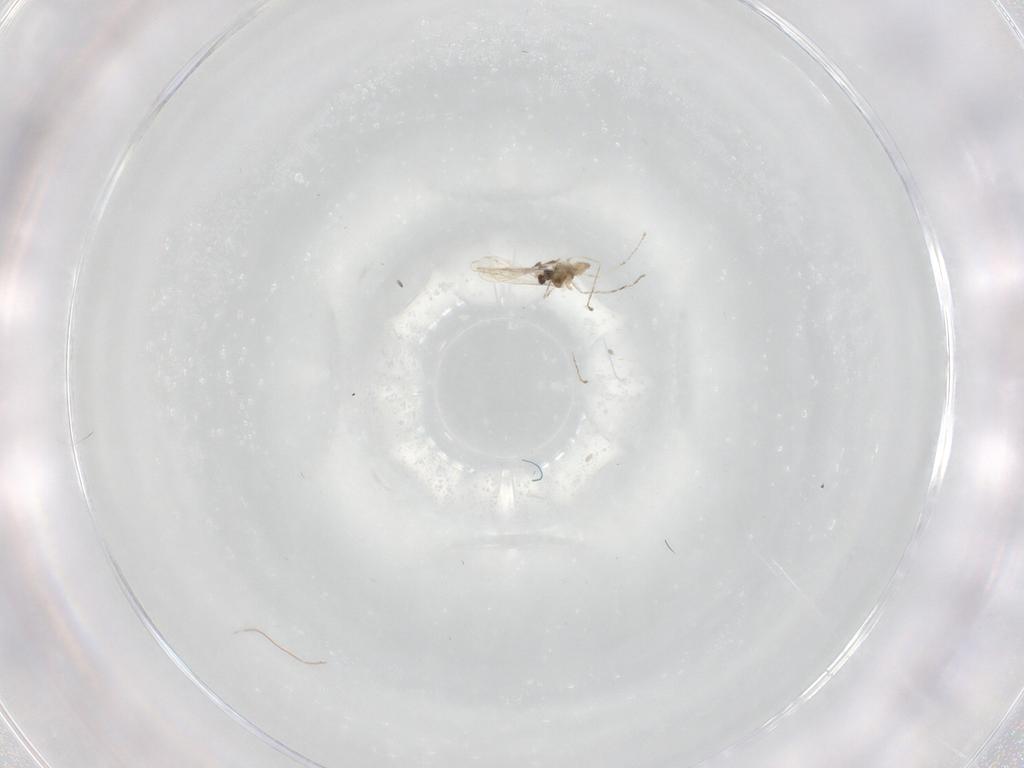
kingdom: Animalia
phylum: Arthropoda
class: Insecta
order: Diptera
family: Cecidomyiidae
